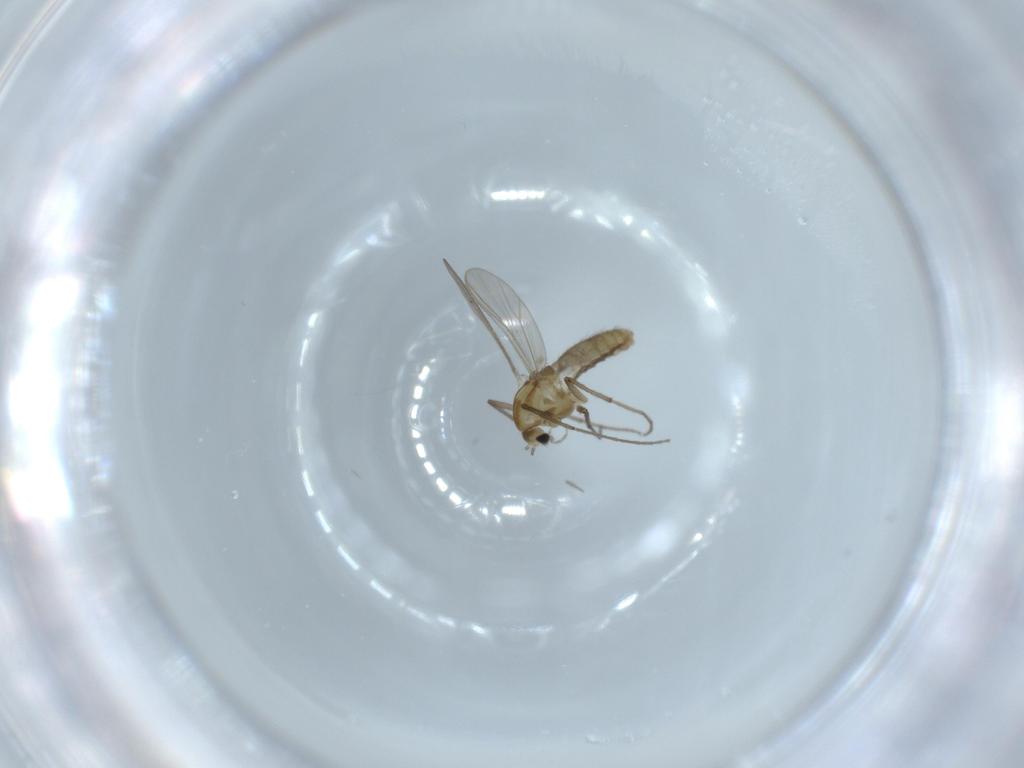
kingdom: Animalia
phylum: Arthropoda
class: Insecta
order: Diptera
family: Chironomidae
